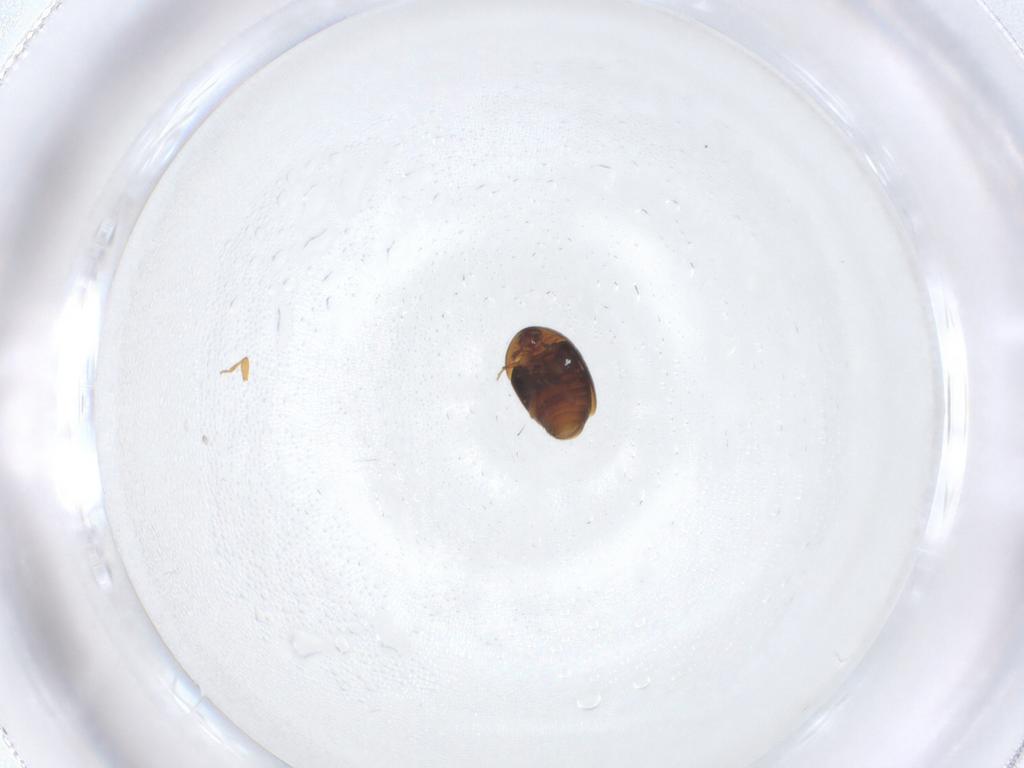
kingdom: Animalia
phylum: Arthropoda
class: Insecta
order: Coleoptera
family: Corylophidae
